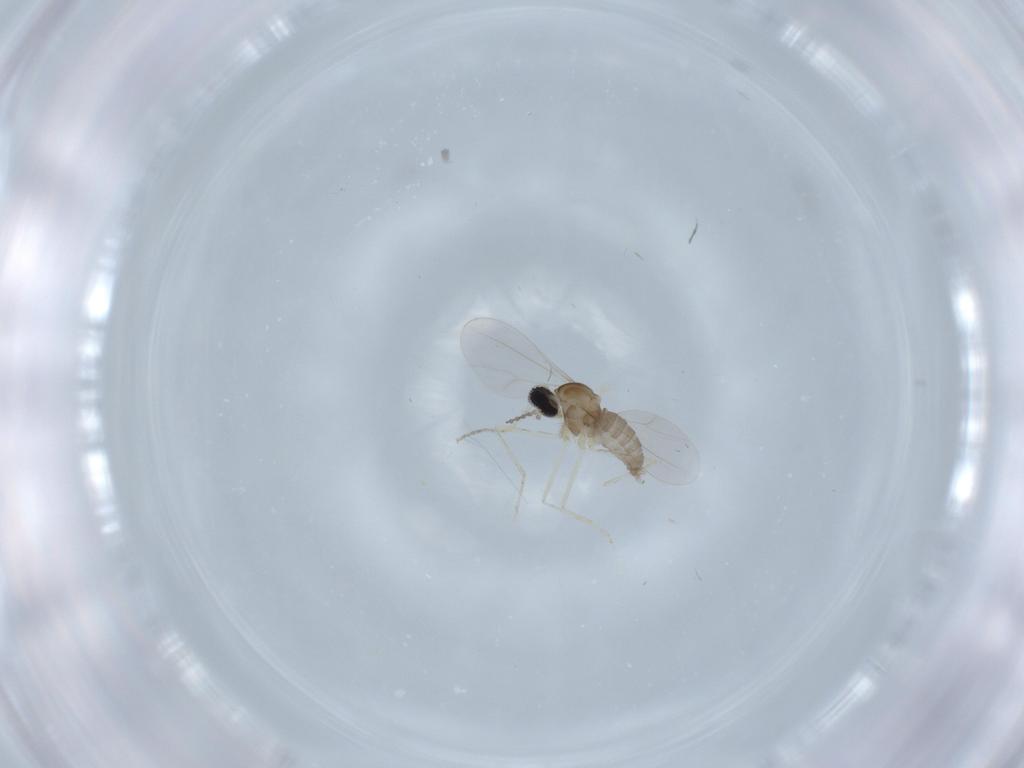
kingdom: Animalia
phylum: Arthropoda
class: Insecta
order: Diptera
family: Cecidomyiidae
